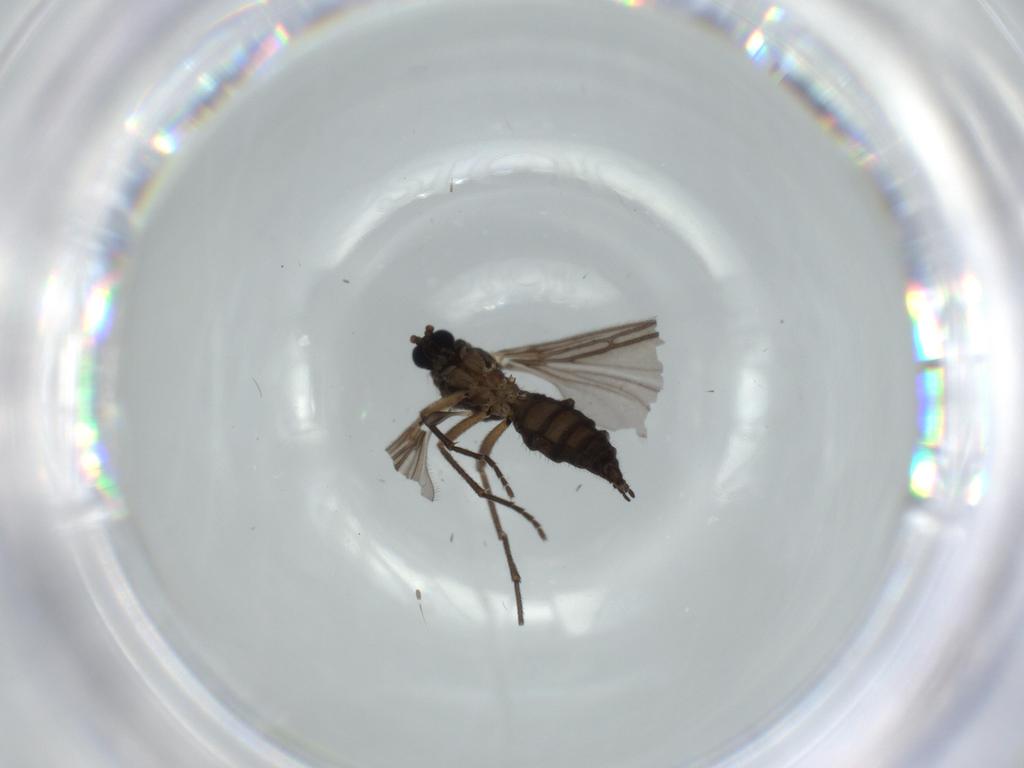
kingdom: Animalia
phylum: Arthropoda
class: Insecta
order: Diptera
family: Sciaridae
